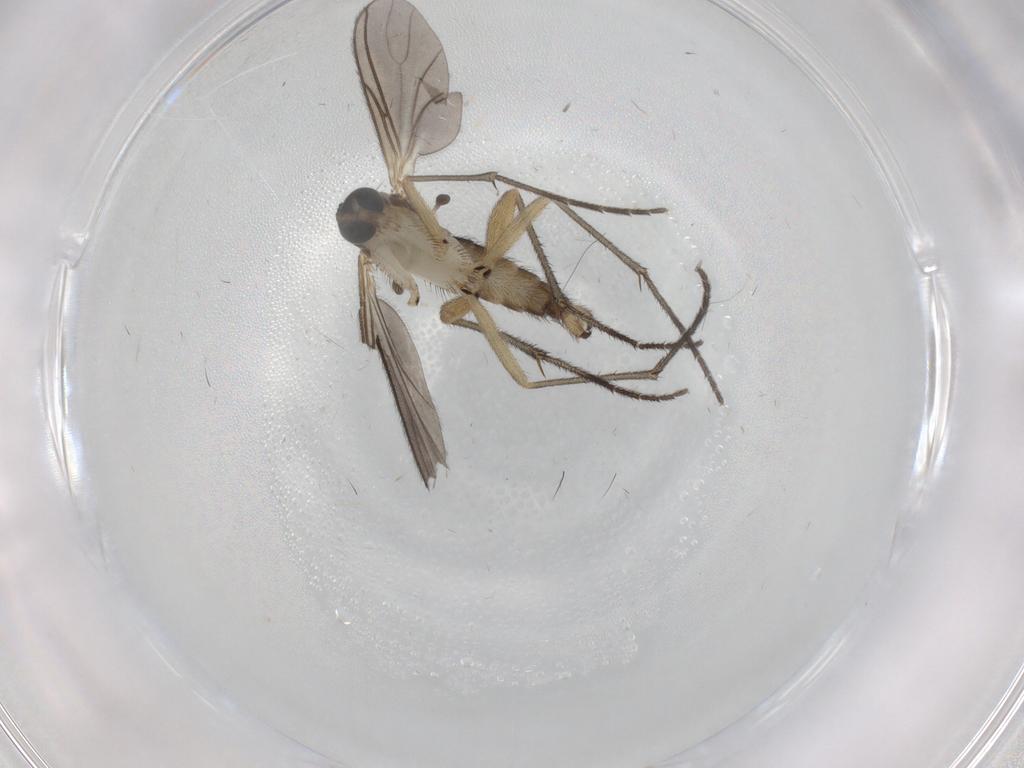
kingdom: Animalia
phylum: Arthropoda
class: Insecta
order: Diptera
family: Sciaridae
